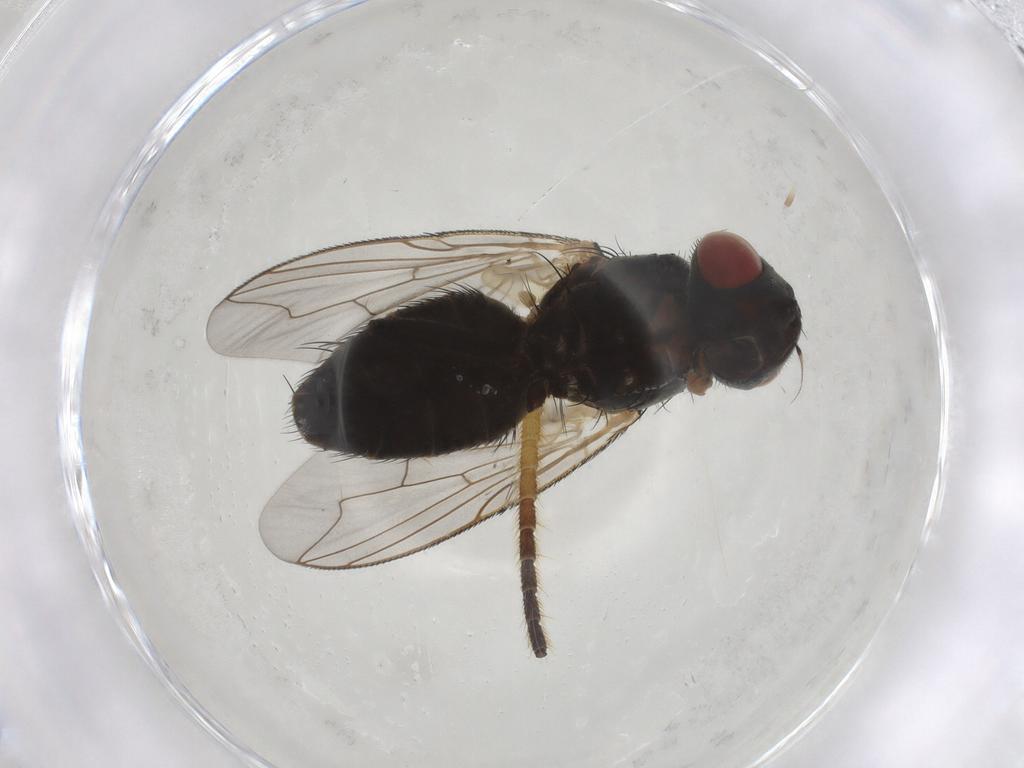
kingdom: Animalia
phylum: Arthropoda
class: Insecta
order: Diptera
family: Sarcophagidae
